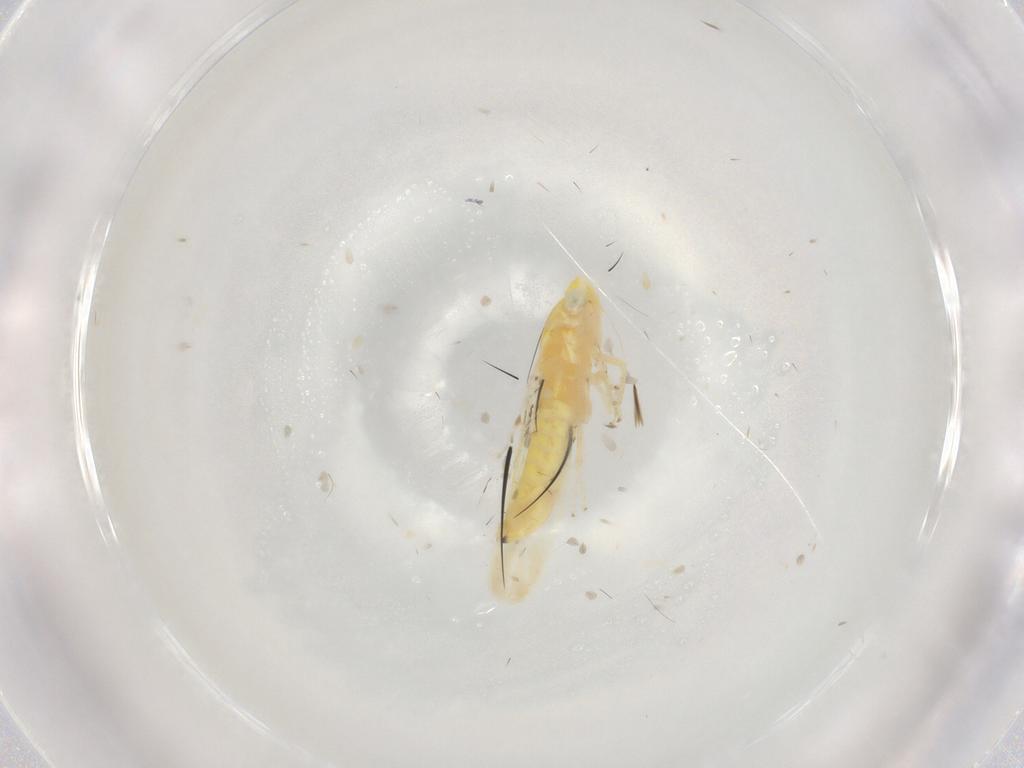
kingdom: Animalia
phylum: Arthropoda
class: Insecta
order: Hemiptera
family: Cicadellidae
